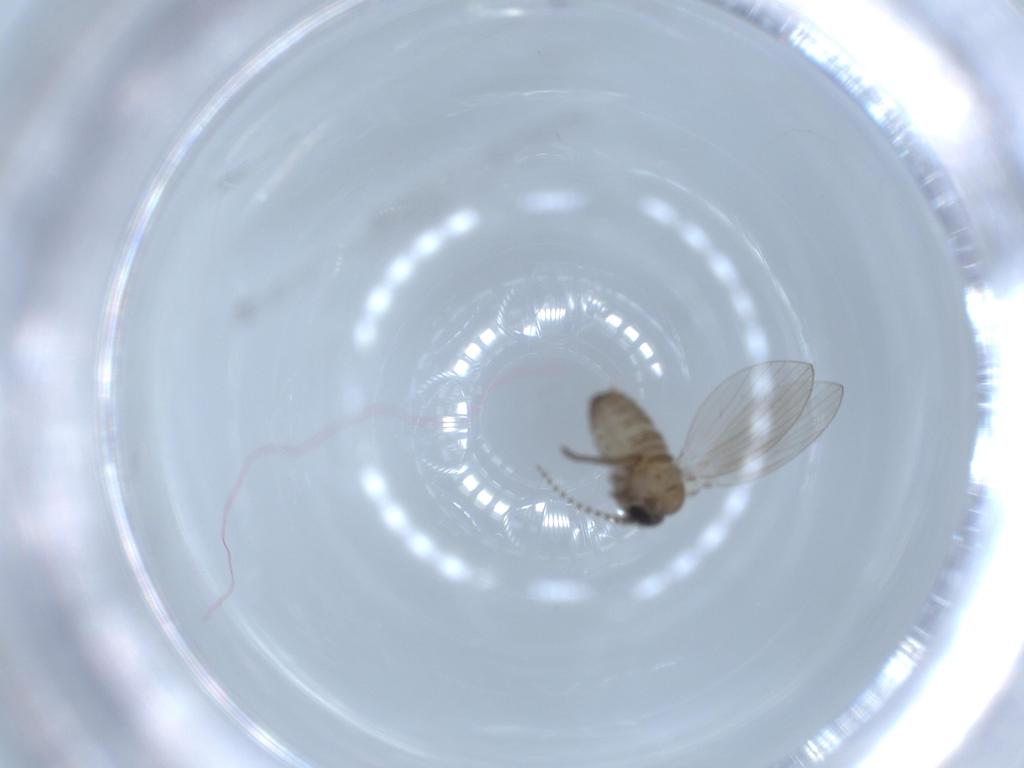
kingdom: Animalia
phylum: Arthropoda
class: Insecta
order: Diptera
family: Psychodidae
